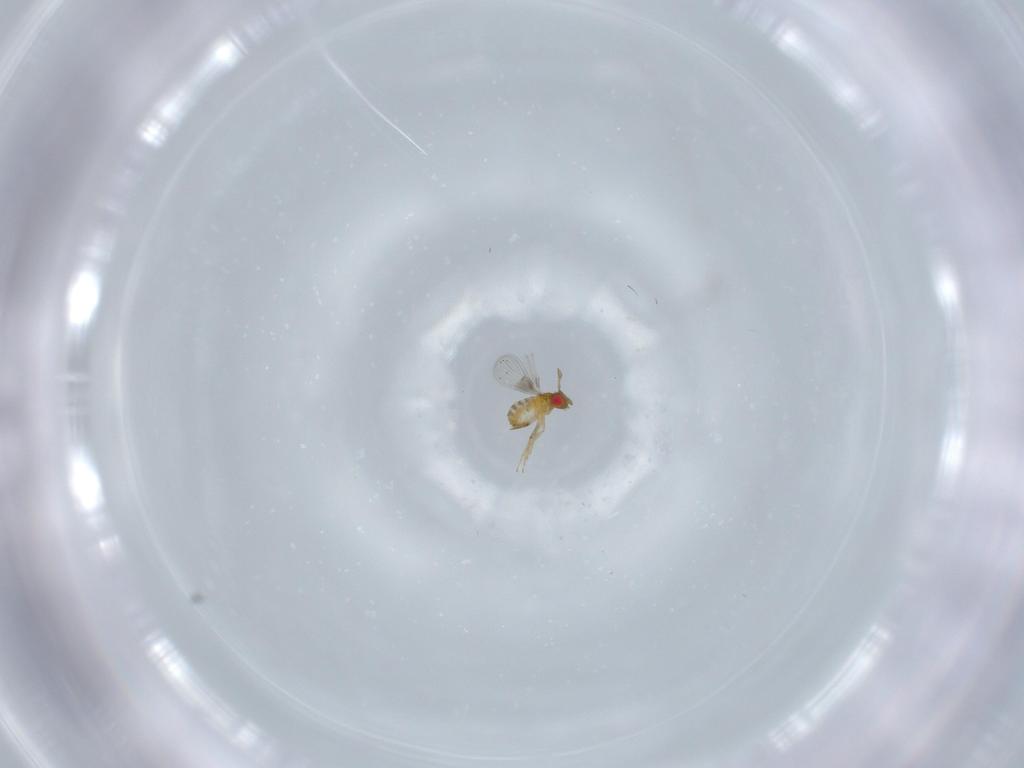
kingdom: Animalia
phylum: Arthropoda
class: Insecta
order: Hymenoptera
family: Trichogrammatidae
